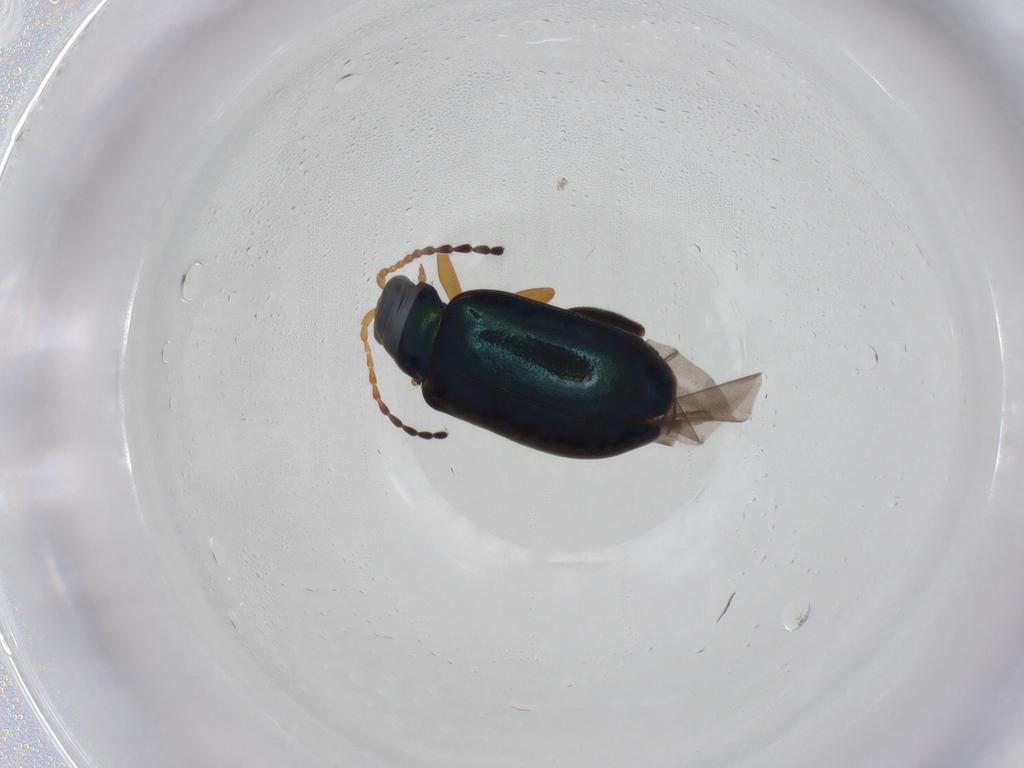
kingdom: Animalia
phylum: Arthropoda
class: Insecta
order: Coleoptera
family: Chrysomelidae
